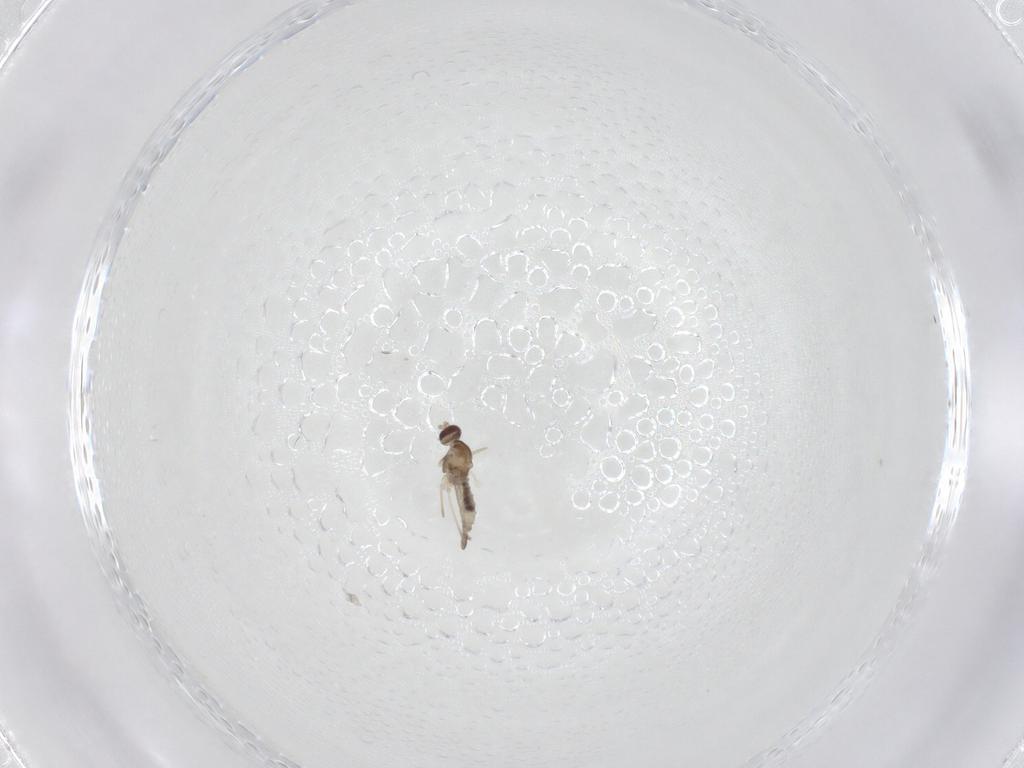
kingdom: Animalia
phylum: Arthropoda
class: Insecta
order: Diptera
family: Cecidomyiidae
